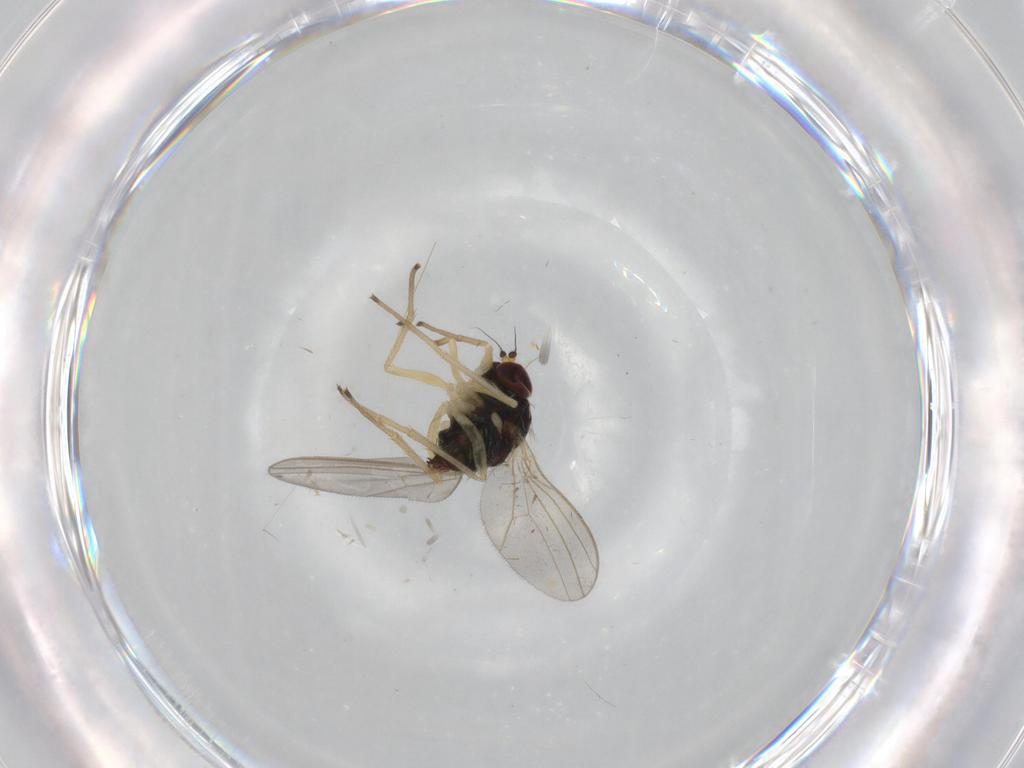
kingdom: Animalia
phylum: Arthropoda
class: Insecta
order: Diptera
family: Dolichopodidae
